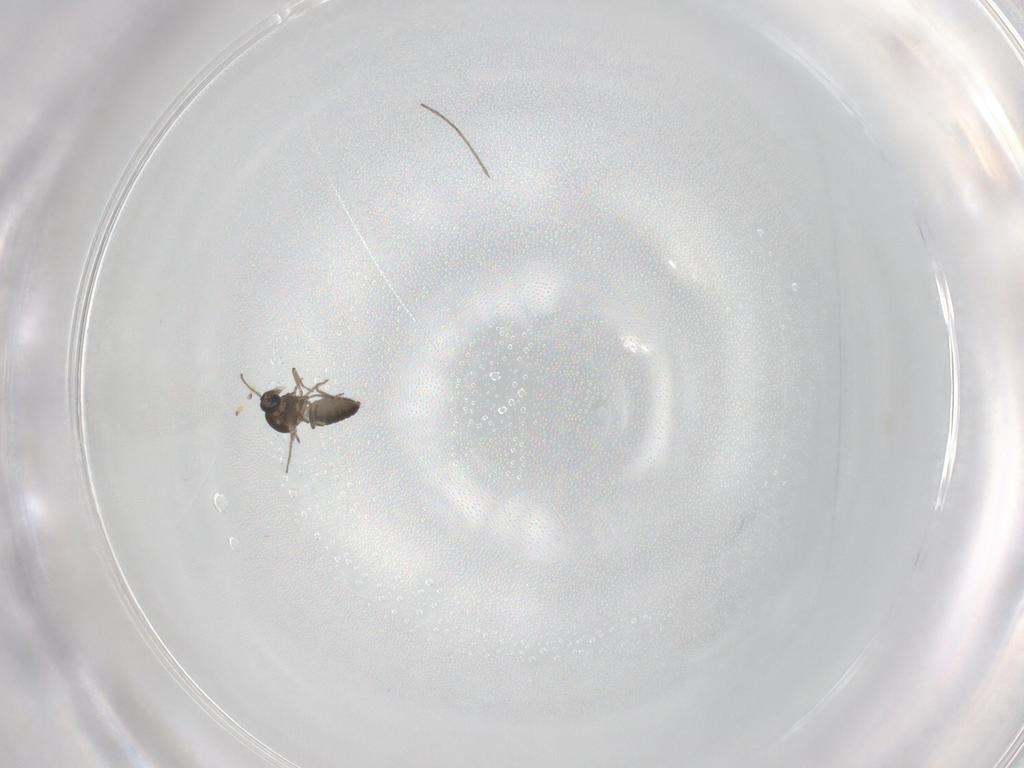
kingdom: Animalia
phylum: Arthropoda
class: Insecta
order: Diptera
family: Ceratopogonidae
